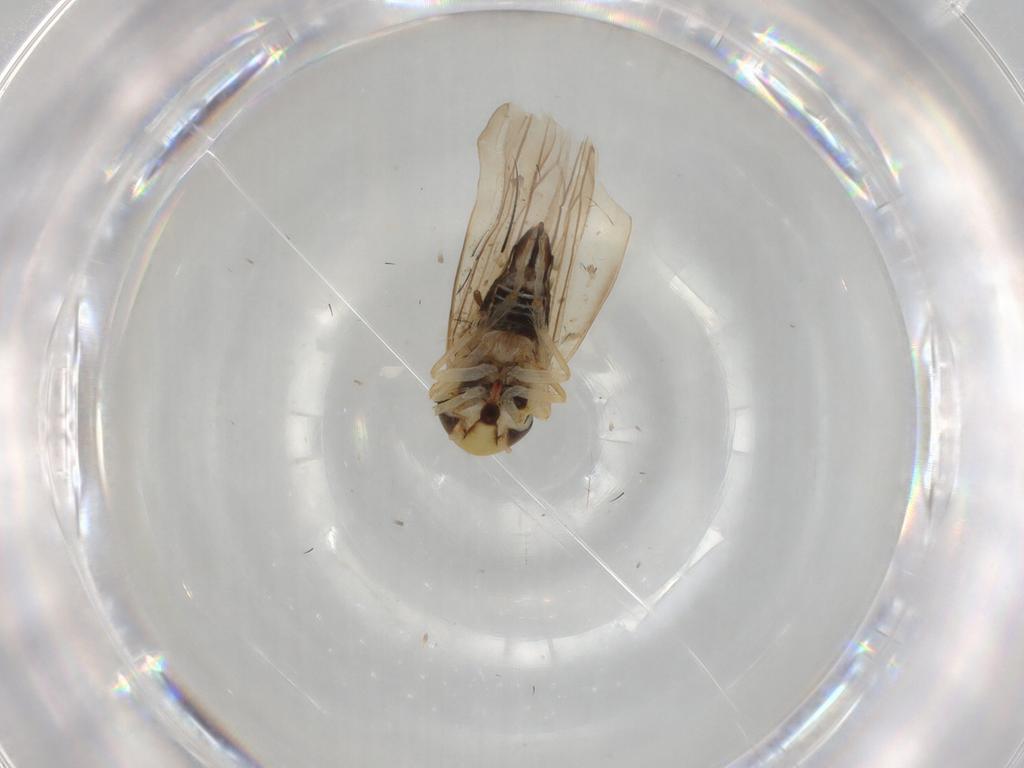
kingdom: Animalia
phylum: Arthropoda
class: Insecta
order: Hemiptera
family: Cicadellidae
